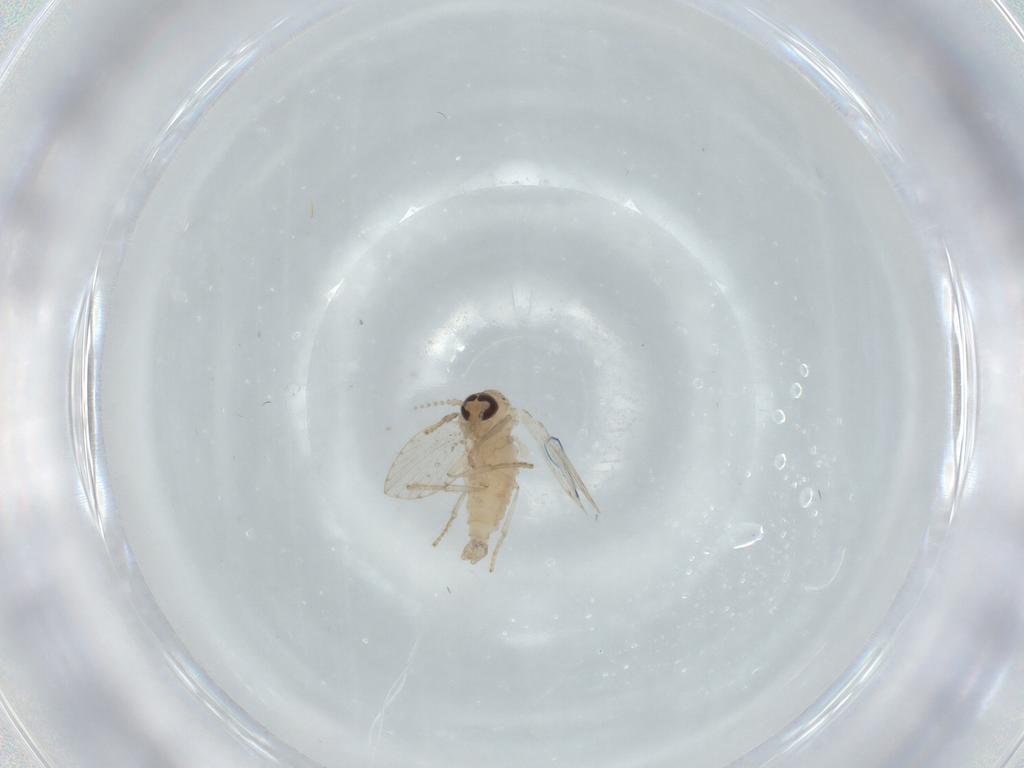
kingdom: Animalia
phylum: Arthropoda
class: Insecta
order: Diptera
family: Psychodidae
